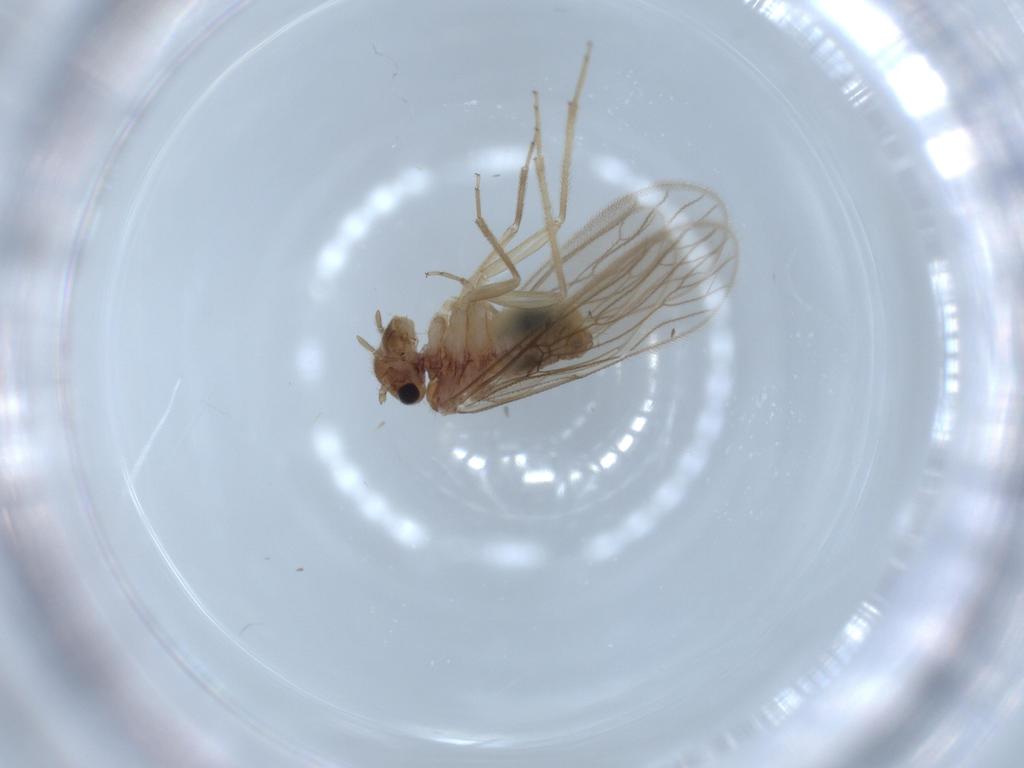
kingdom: Animalia
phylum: Arthropoda
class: Insecta
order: Psocodea
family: Cladiopsocidae
